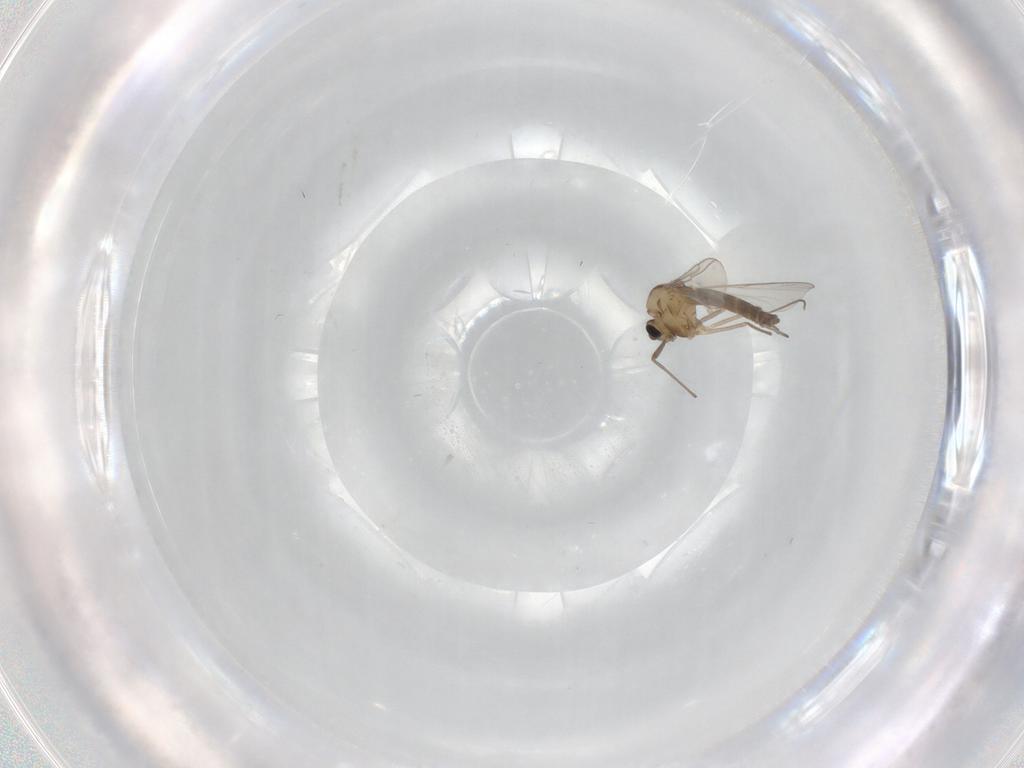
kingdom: Animalia
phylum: Arthropoda
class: Insecta
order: Diptera
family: Chironomidae
